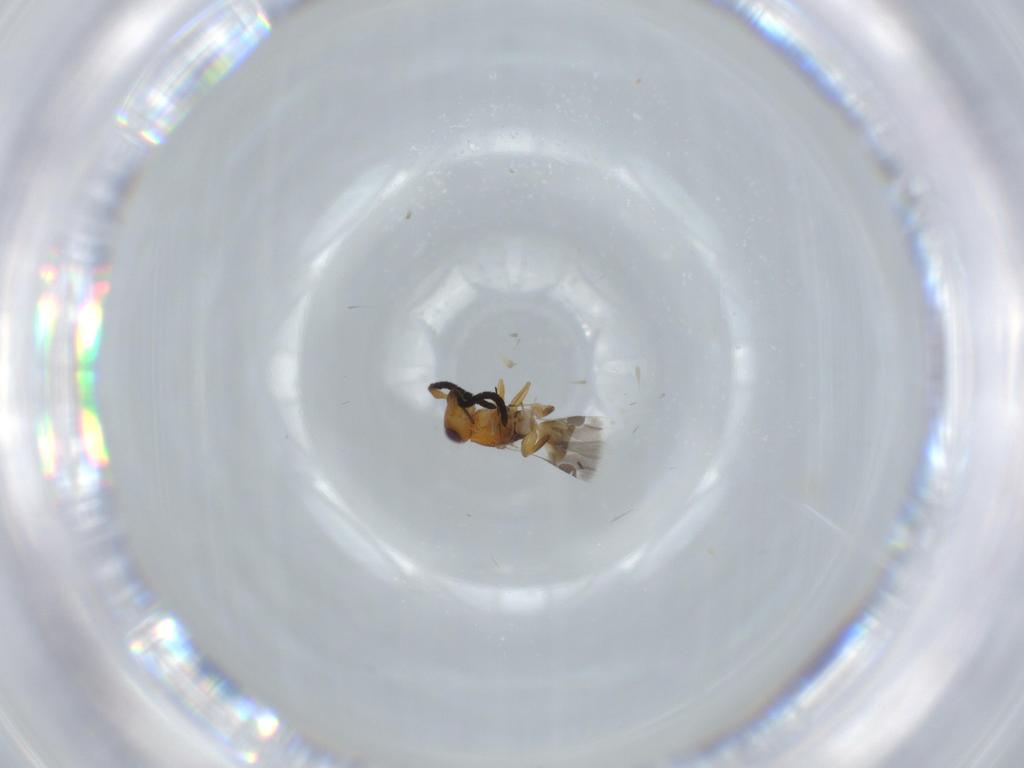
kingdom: Animalia
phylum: Arthropoda
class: Insecta
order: Hymenoptera
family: Megaspilidae
